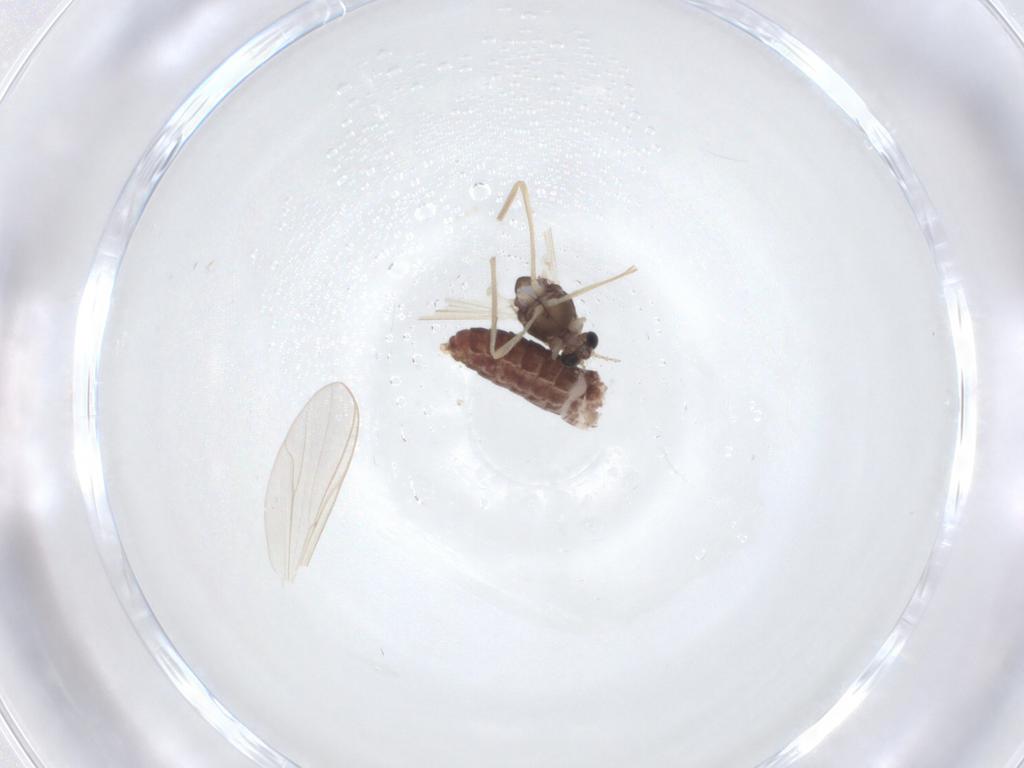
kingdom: Animalia
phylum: Arthropoda
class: Insecta
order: Diptera
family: Chironomidae
